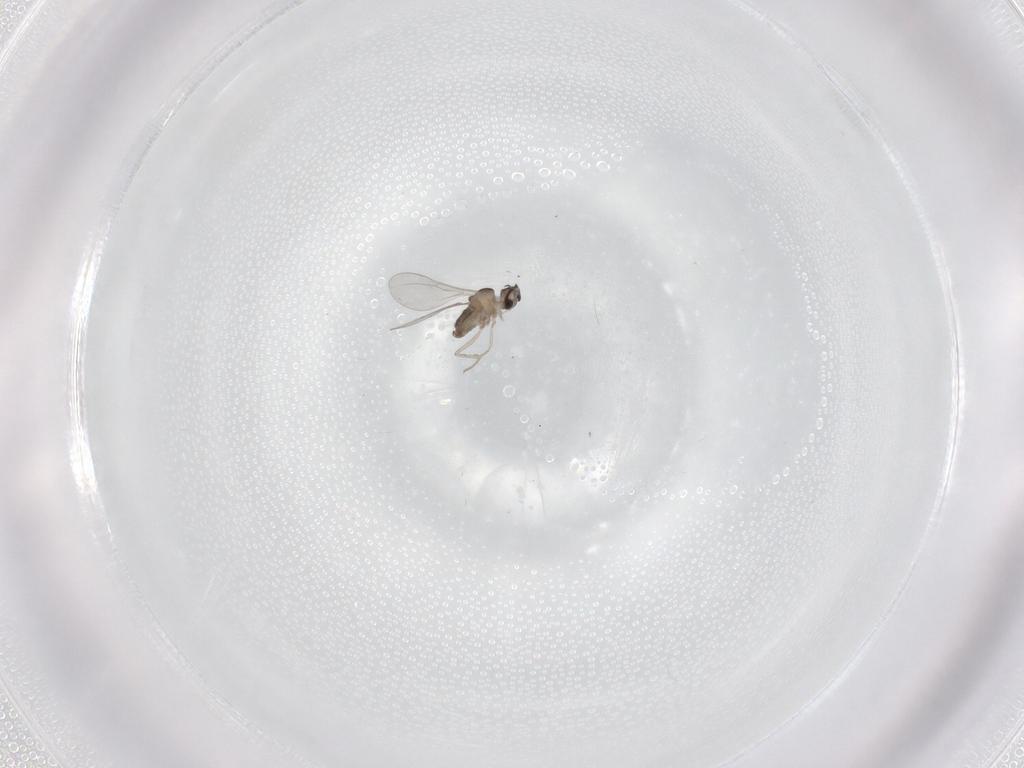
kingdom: Animalia
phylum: Arthropoda
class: Insecta
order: Diptera
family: Cecidomyiidae
